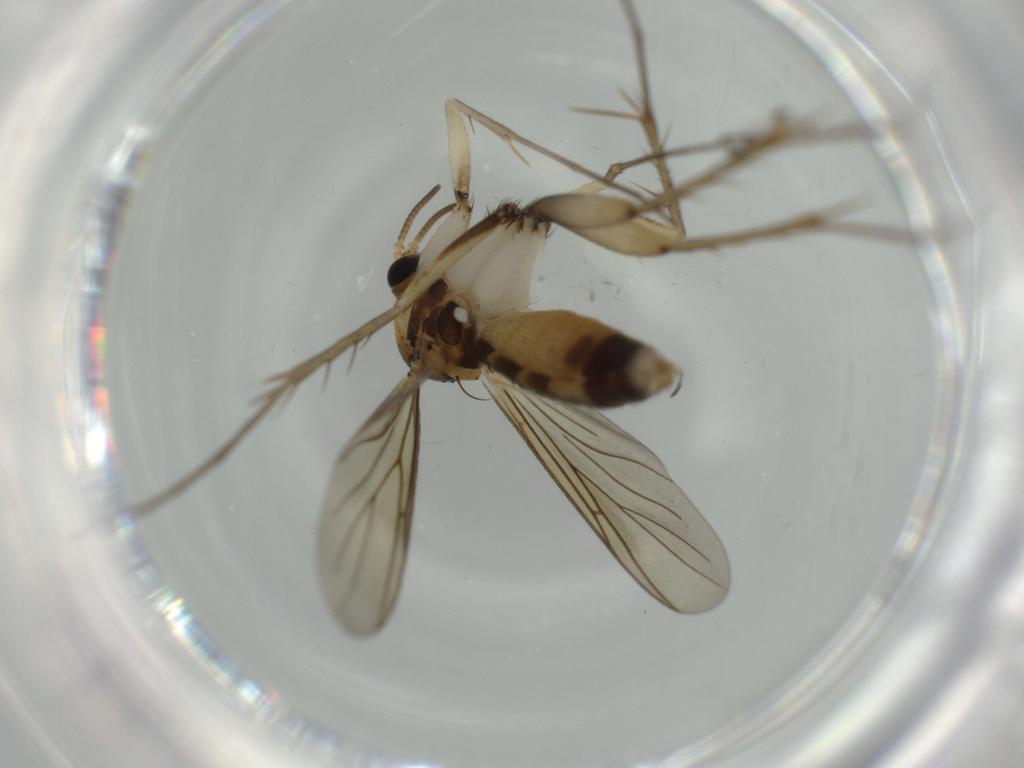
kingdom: Animalia
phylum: Arthropoda
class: Insecta
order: Diptera
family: Mycetophilidae
